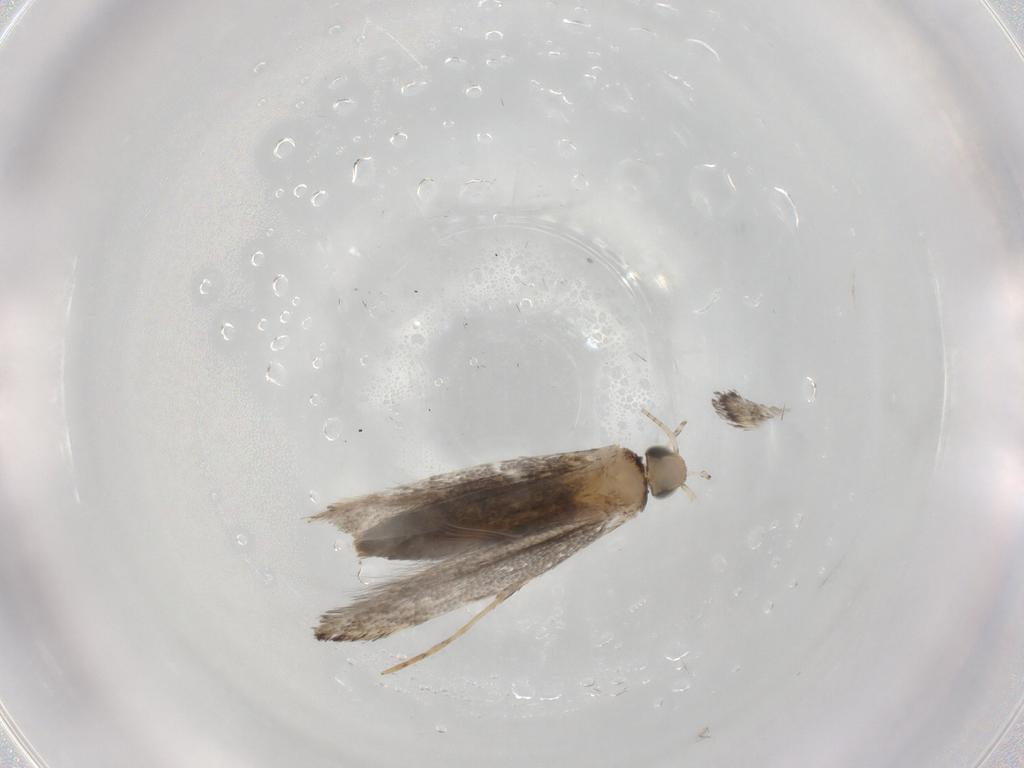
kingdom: Animalia
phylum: Arthropoda
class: Insecta
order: Lepidoptera
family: Gracillariidae
